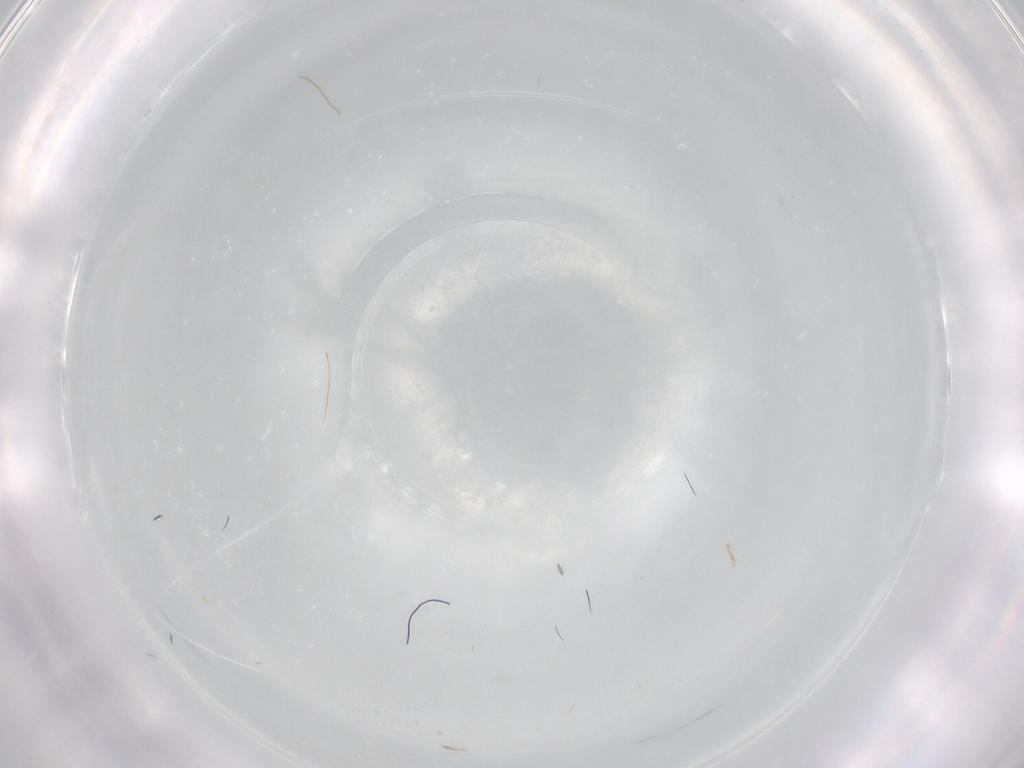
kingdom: Animalia
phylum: Arthropoda
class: Insecta
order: Coleoptera
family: Nitidulidae
